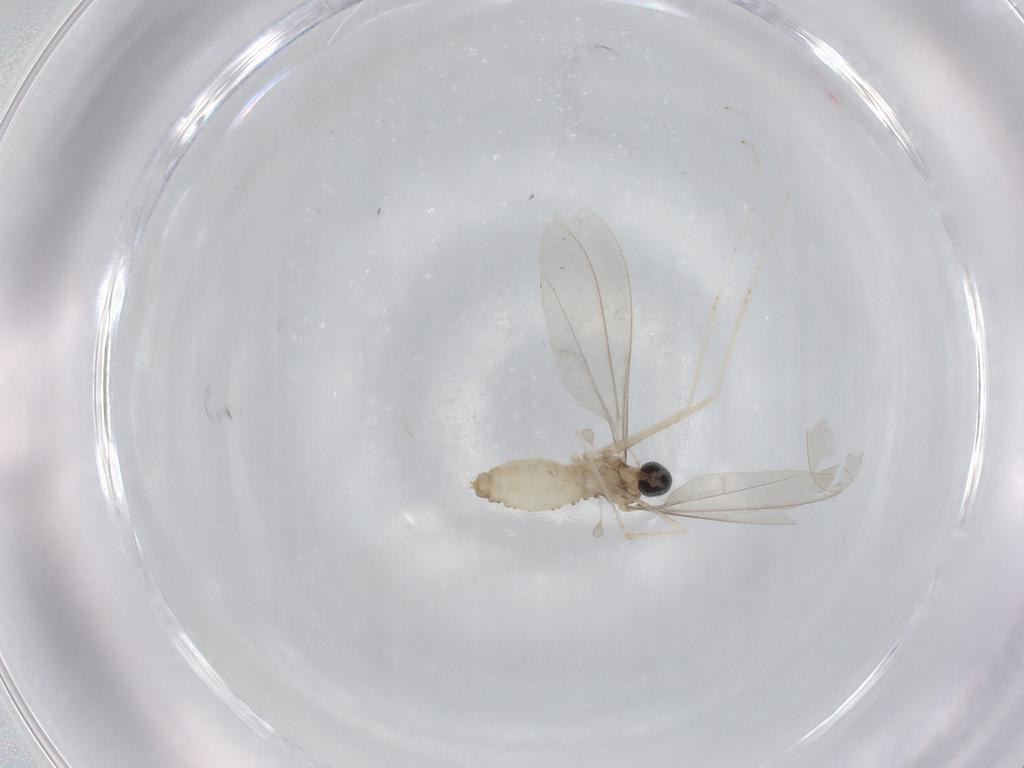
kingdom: Animalia
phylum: Arthropoda
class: Insecta
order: Diptera
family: Cecidomyiidae
